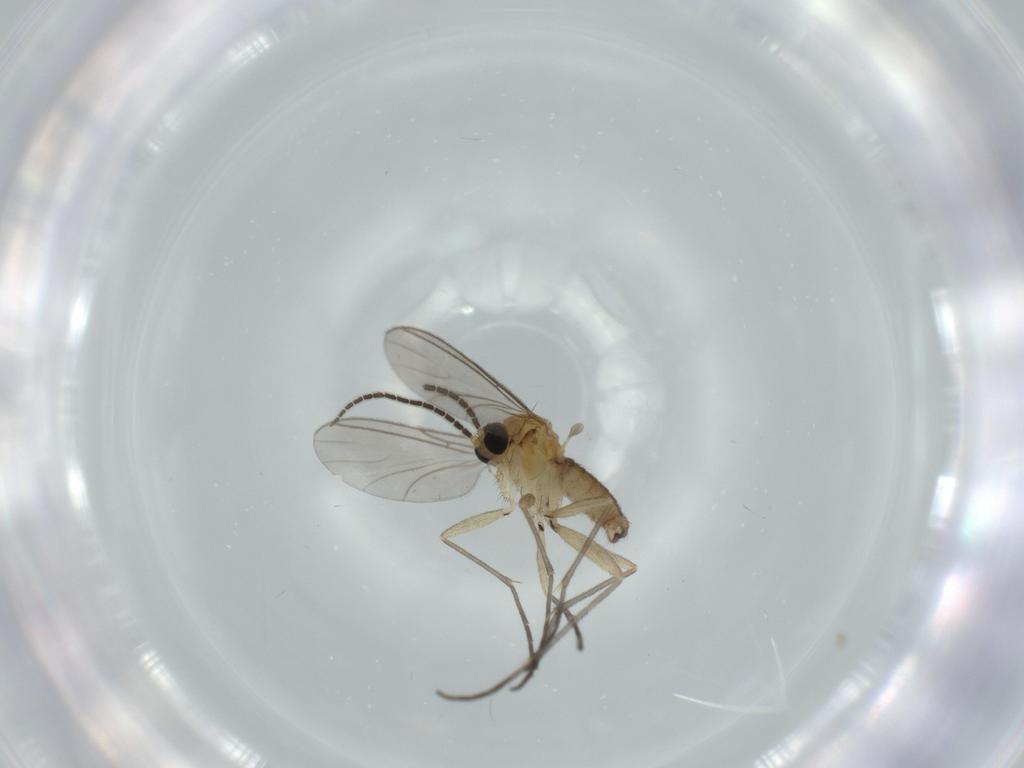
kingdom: Animalia
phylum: Arthropoda
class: Insecta
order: Diptera
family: Sciaridae
